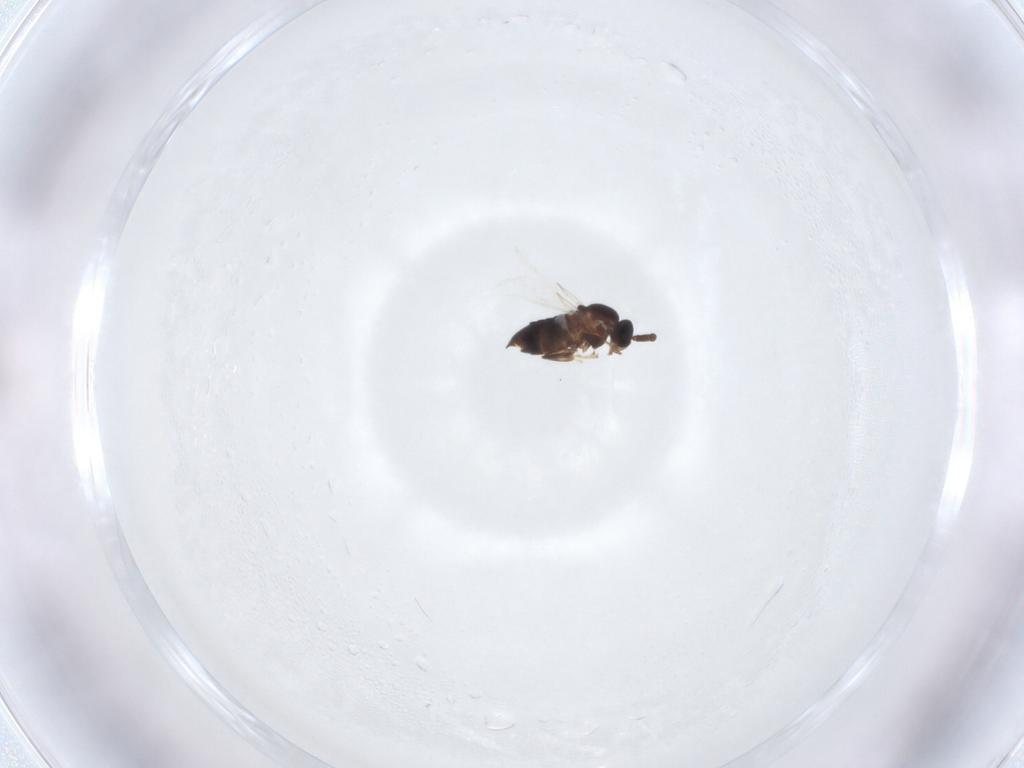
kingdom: Animalia
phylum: Arthropoda
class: Insecta
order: Diptera
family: Scatopsidae
